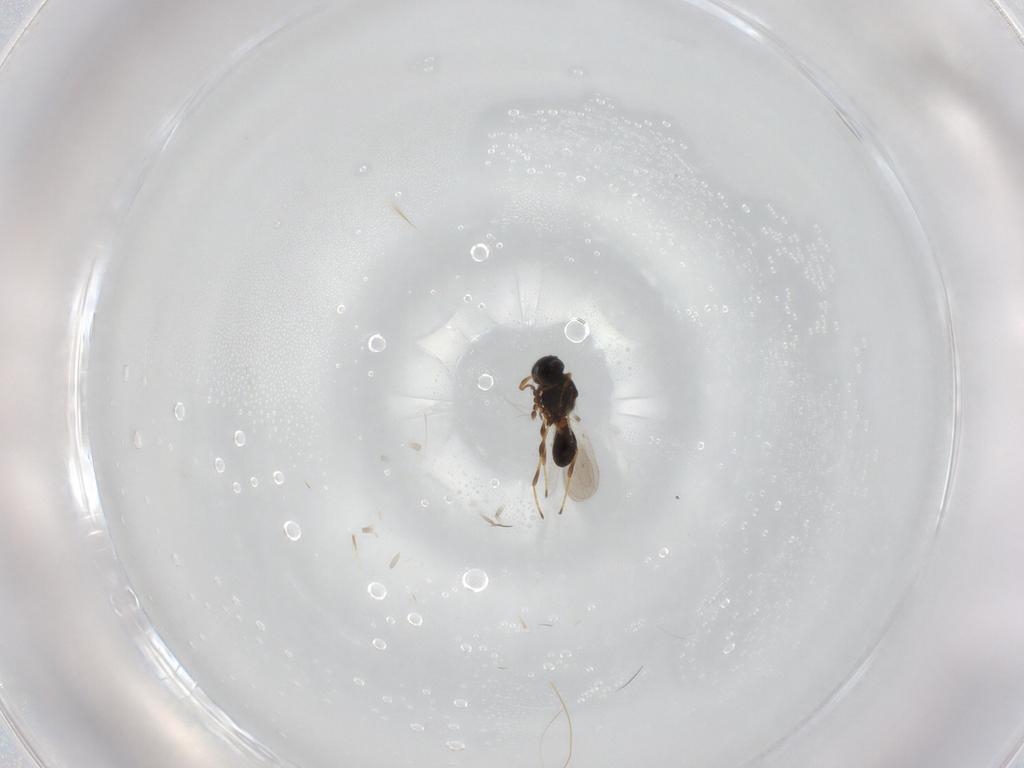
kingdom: Animalia
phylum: Arthropoda
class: Insecta
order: Hymenoptera
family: Platygastridae
